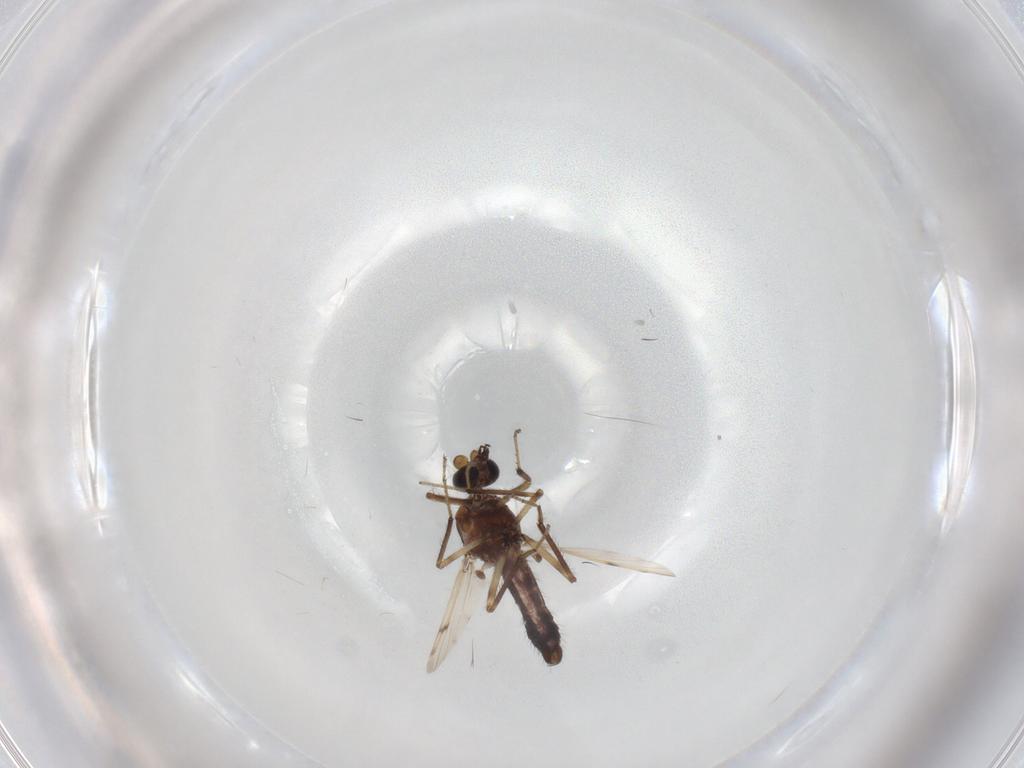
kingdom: Animalia
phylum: Arthropoda
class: Insecta
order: Diptera
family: Ceratopogonidae
